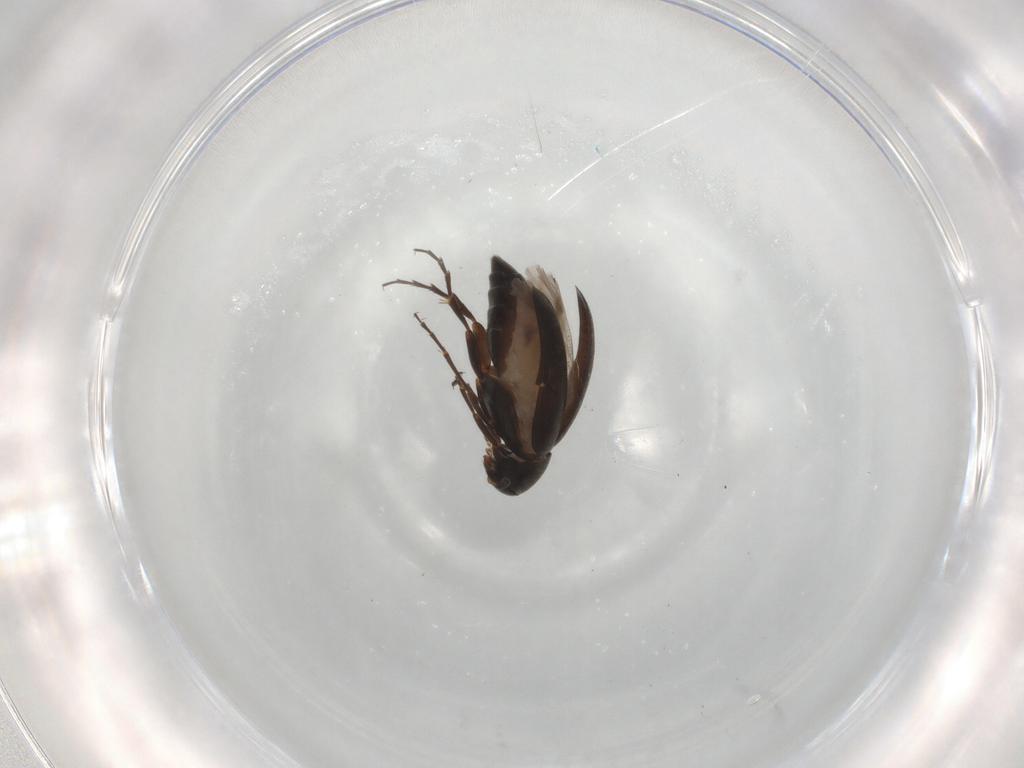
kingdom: Animalia
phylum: Arthropoda
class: Insecta
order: Coleoptera
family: Scraptiidae
